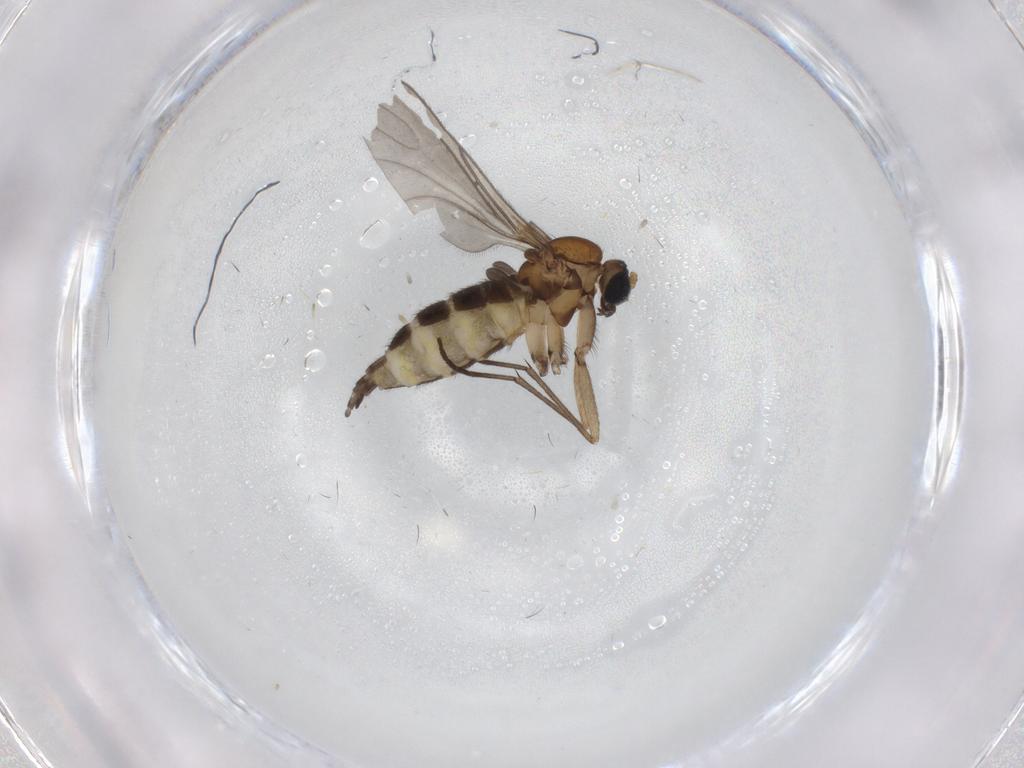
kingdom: Animalia
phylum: Arthropoda
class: Insecta
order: Diptera
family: Sciaridae
